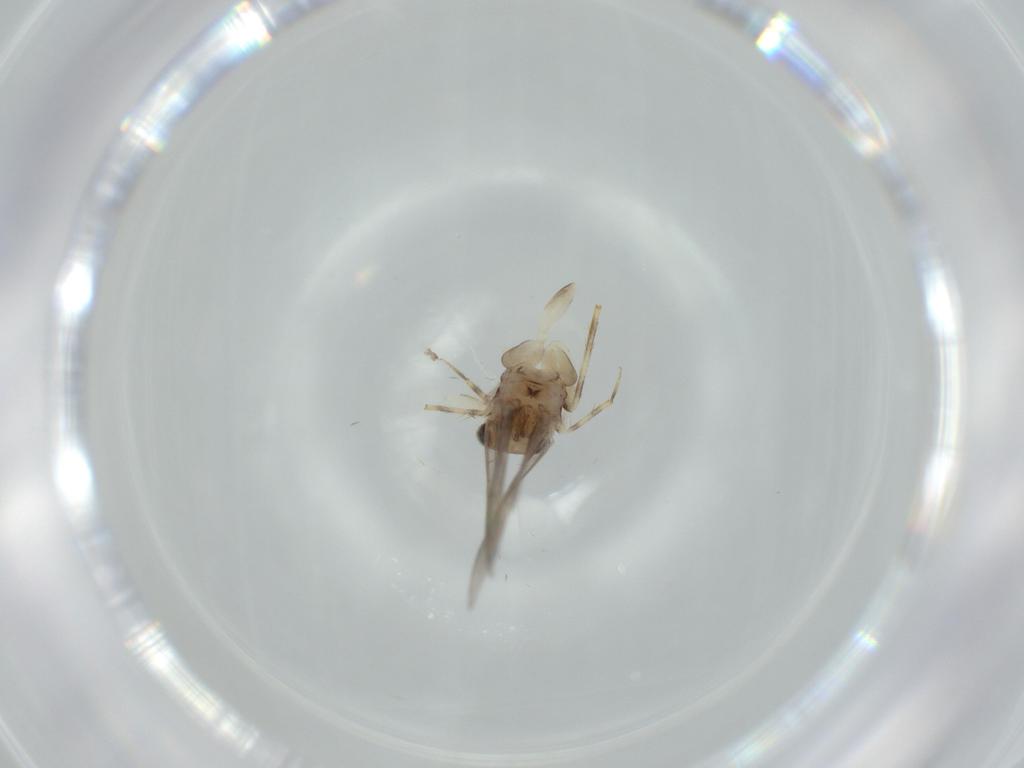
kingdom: Animalia
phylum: Arthropoda
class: Insecta
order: Psocodea
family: Lepidopsocidae
